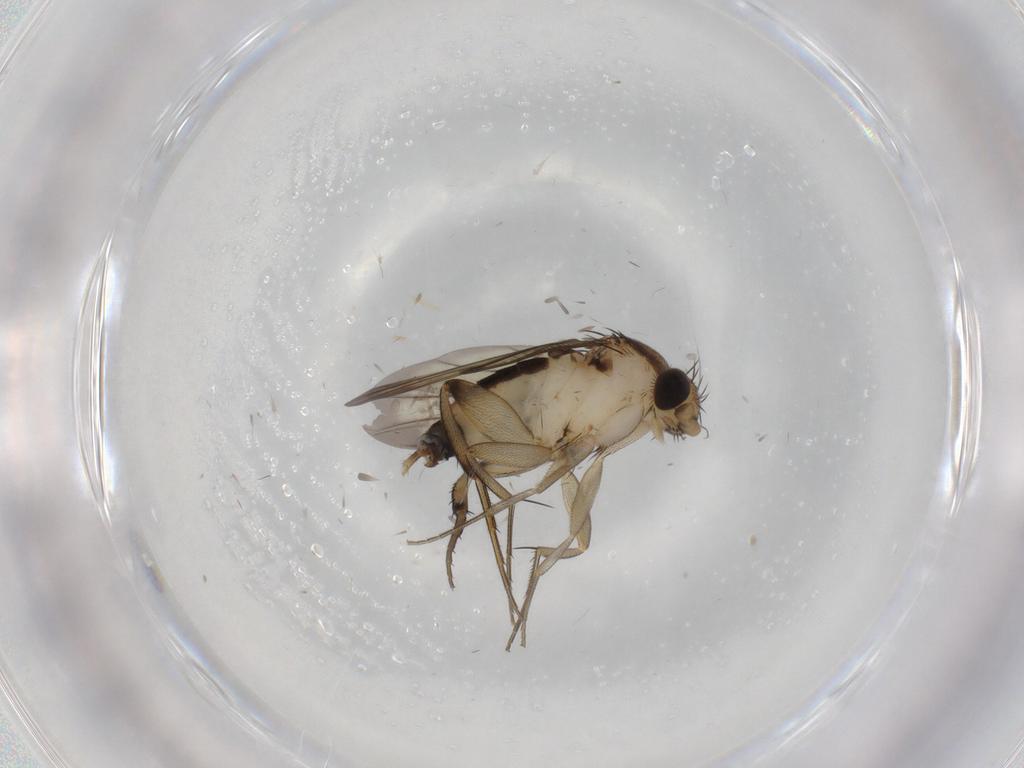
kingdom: Animalia
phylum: Arthropoda
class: Insecta
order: Diptera
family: Phoridae
